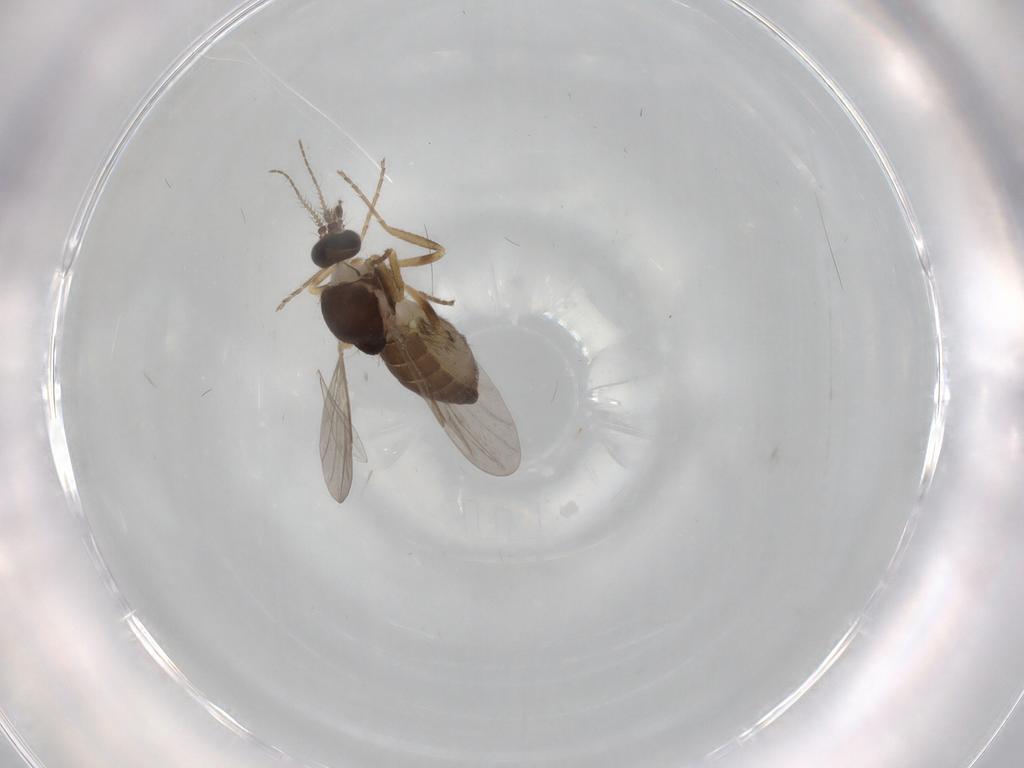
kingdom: Animalia
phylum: Arthropoda
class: Insecta
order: Diptera
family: Ceratopogonidae
